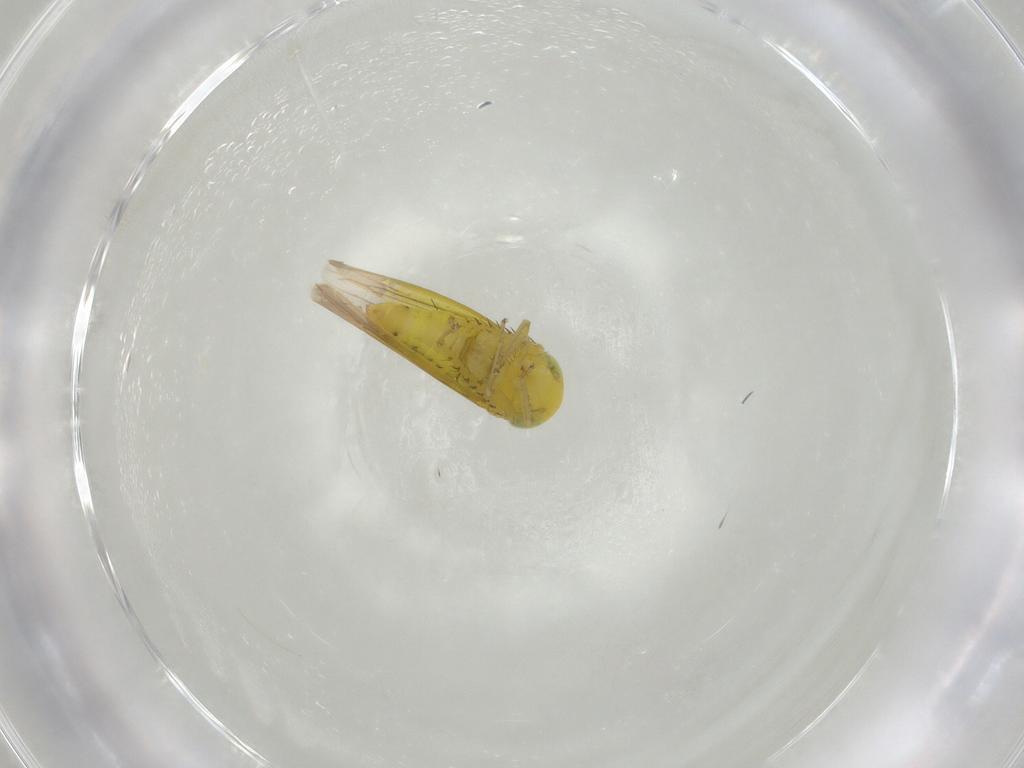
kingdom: Animalia
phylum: Arthropoda
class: Insecta
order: Hemiptera
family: Cicadellidae
